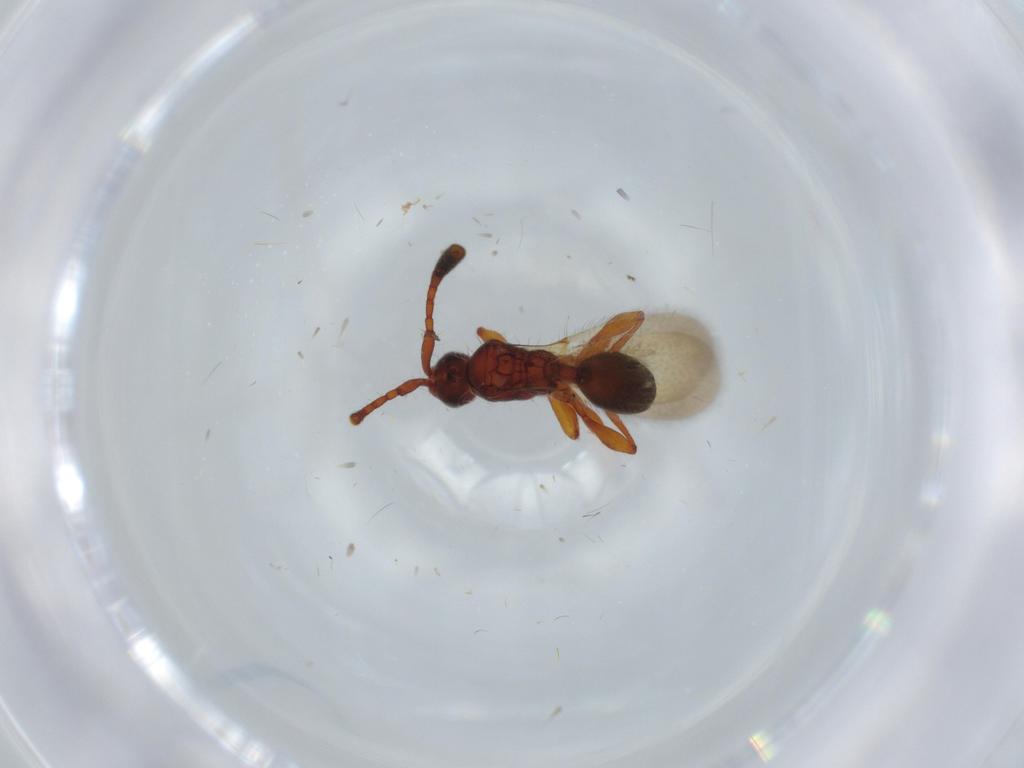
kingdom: Animalia
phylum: Arthropoda
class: Insecta
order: Hymenoptera
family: Diapriidae
